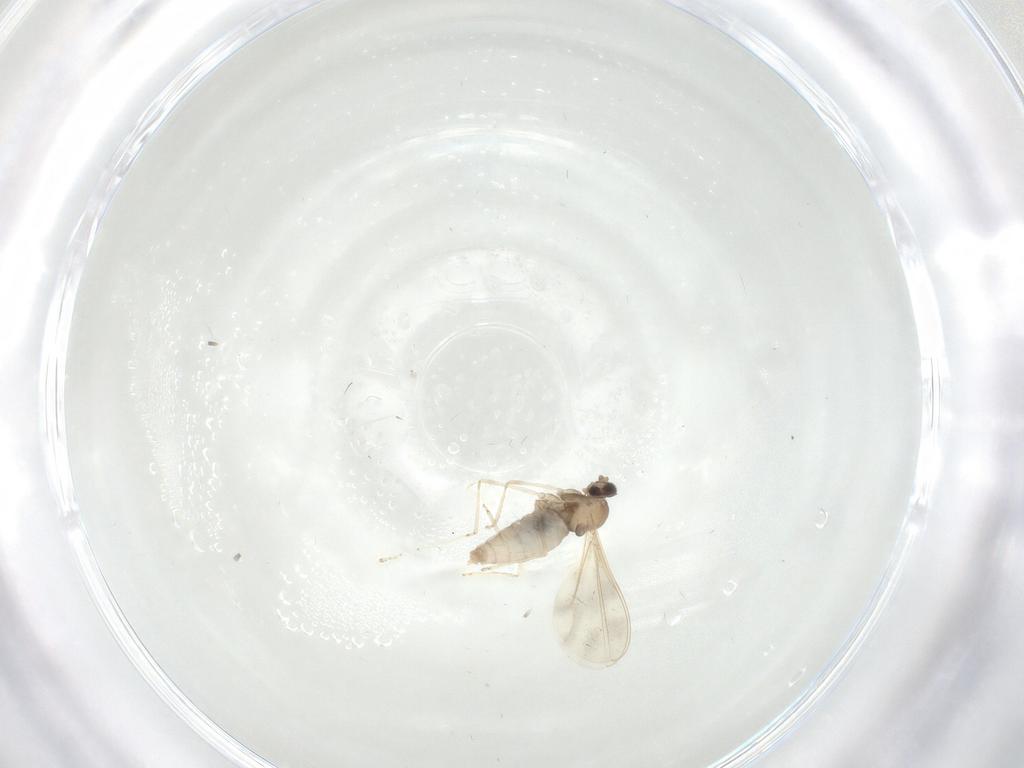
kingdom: Animalia
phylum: Arthropoda
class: Insecta
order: Diptera
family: Cecidomyiidae
